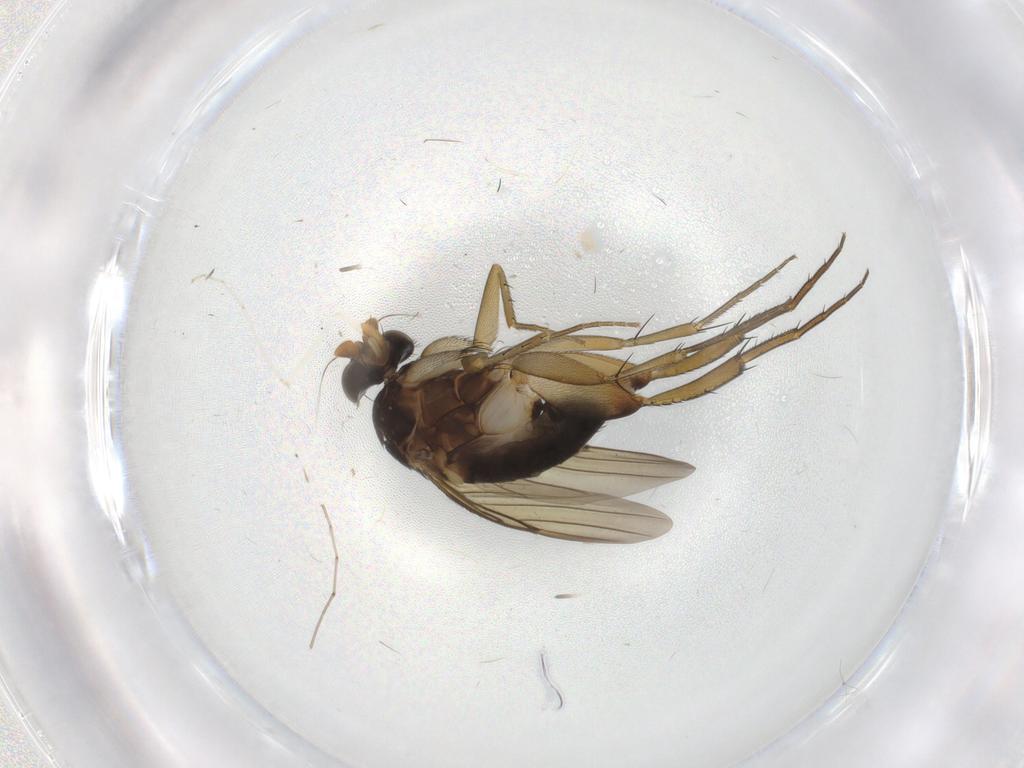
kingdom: Animalia
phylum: Arthropoda
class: Insecta
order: Diptera
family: Phoridae
